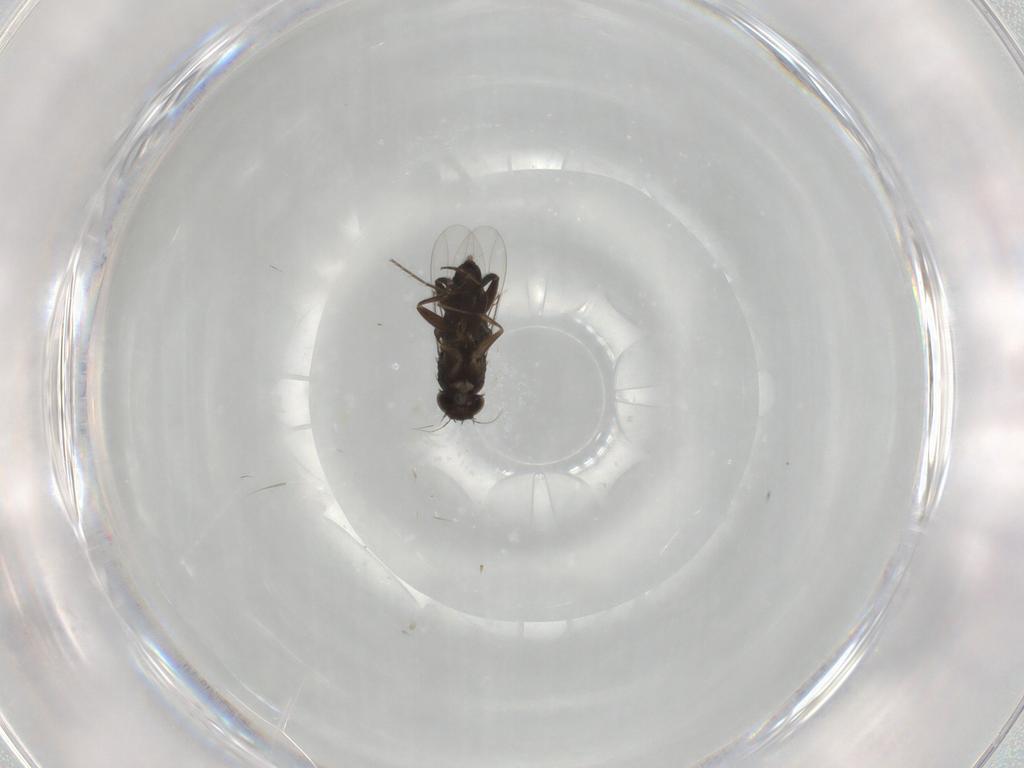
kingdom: Animalia
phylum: Arthropoda
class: Insecta
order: Diptera
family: Phoridae
